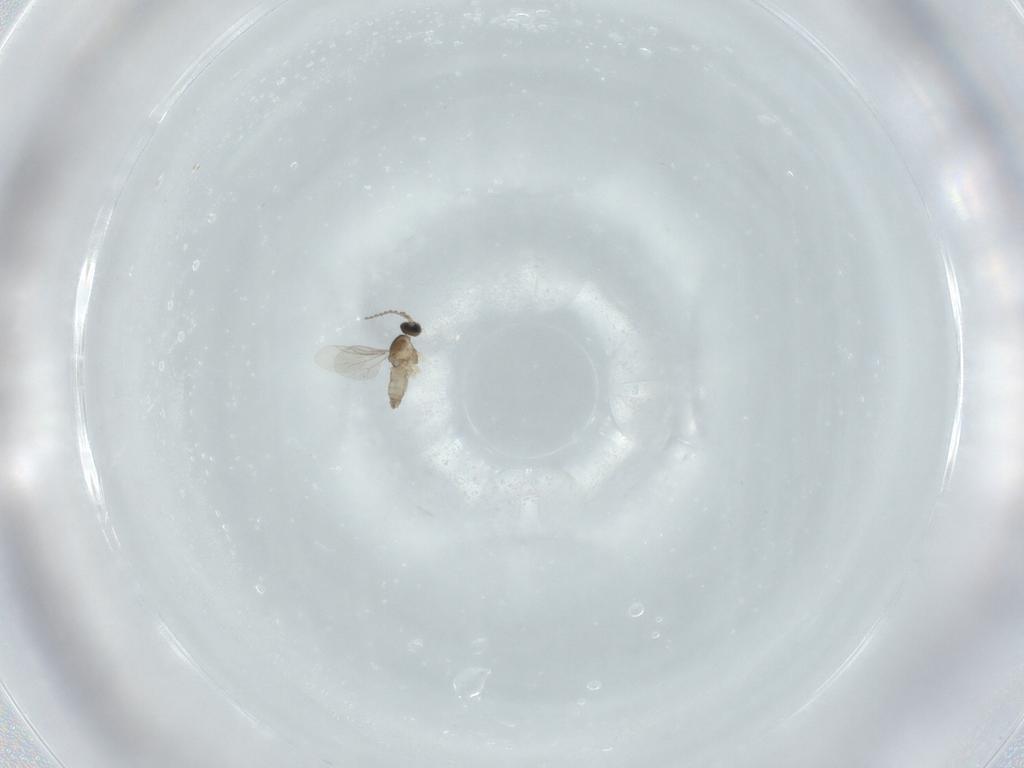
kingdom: Animalia
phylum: Arthropoda
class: Insecta
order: Diptera
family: Cecidomyiidae
